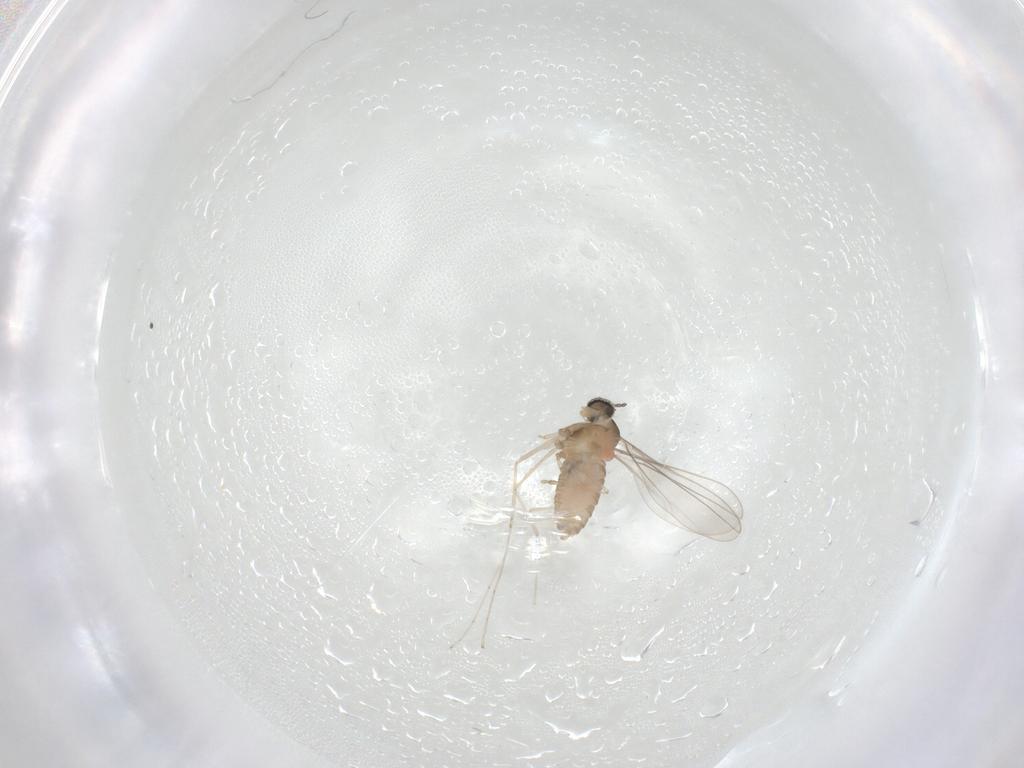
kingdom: Animalia
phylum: Arthropoda
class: Insecta
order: Diptera
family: Cecidomyiidae
